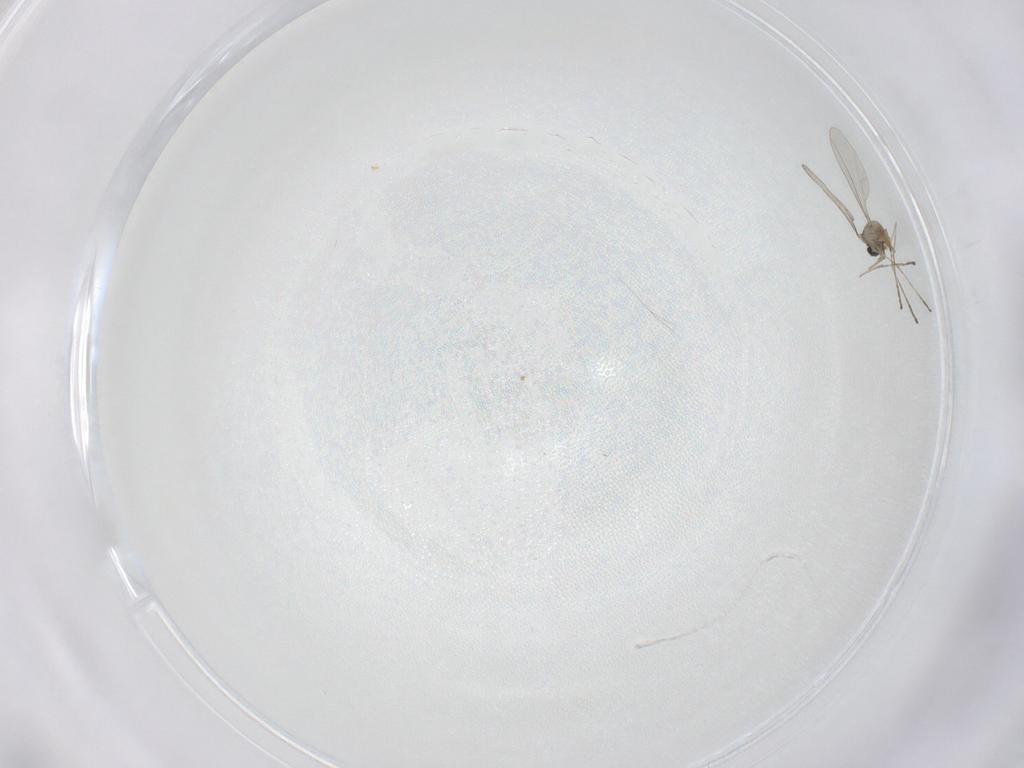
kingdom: Animalia
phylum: Arthropoda
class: Insecta
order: Diptera
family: Cecidomyiidae
